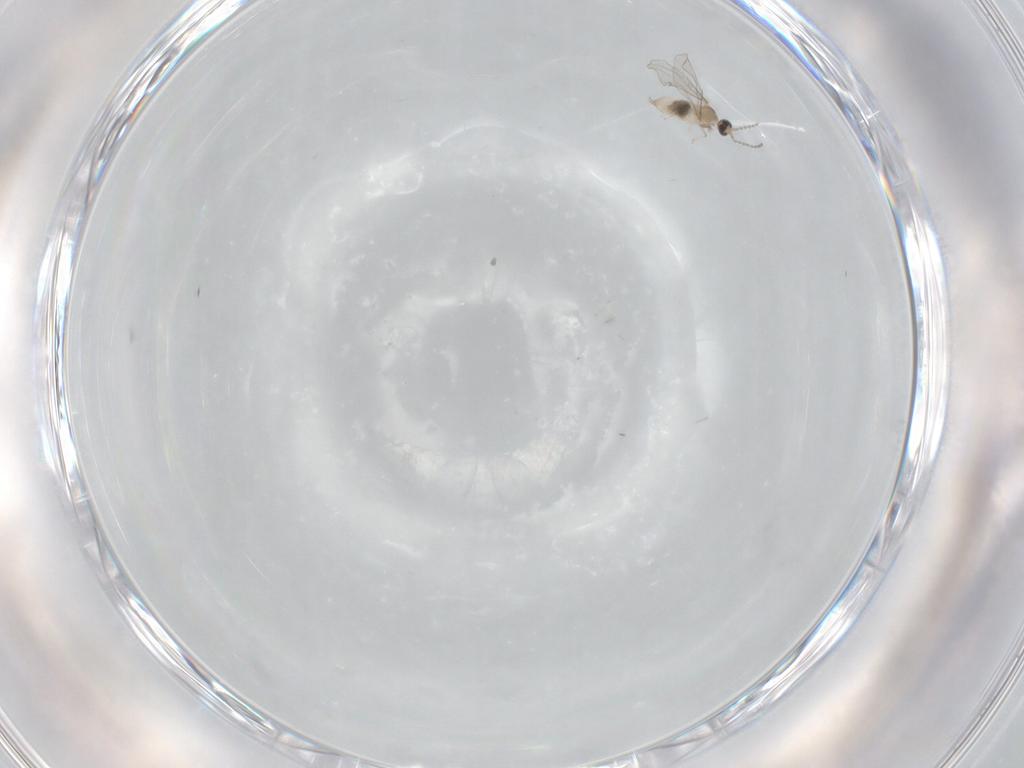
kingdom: Animalia
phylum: Arthropoda
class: Insecta
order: Diptera
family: Cecidomyiidae
